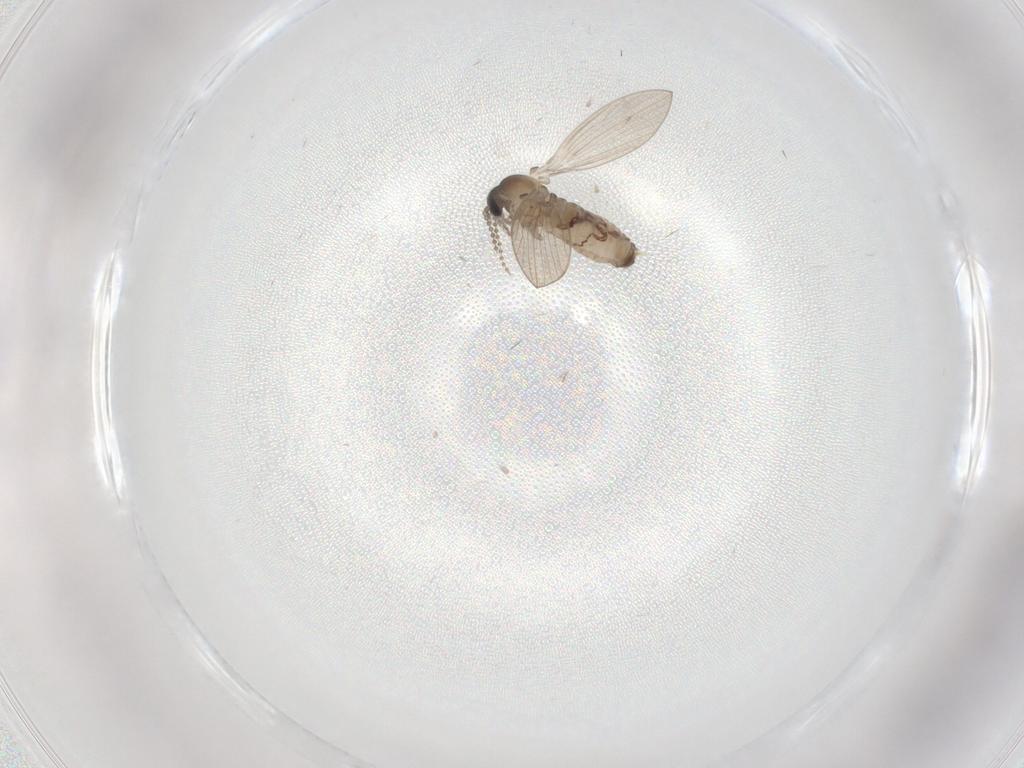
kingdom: Animalia
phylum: Arthropoda
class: Insecta
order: Diptera
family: Psychodidae
